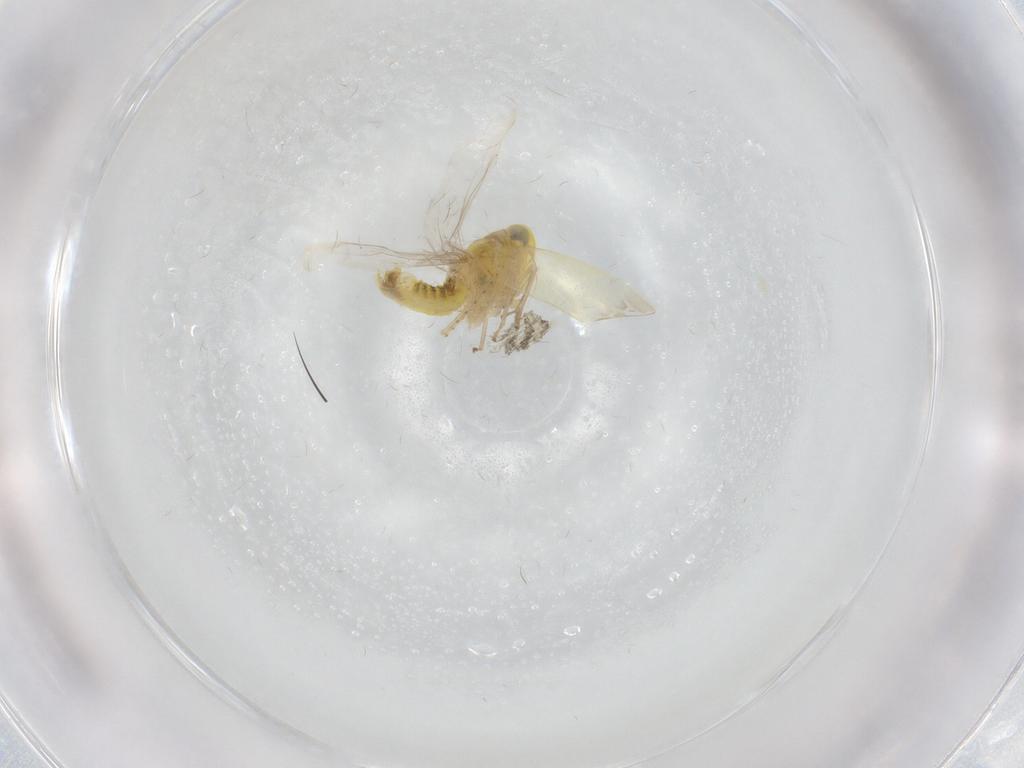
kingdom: Animalia
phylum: Arthropoda
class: Insecta
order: Hemiptera
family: Cicadellidae
